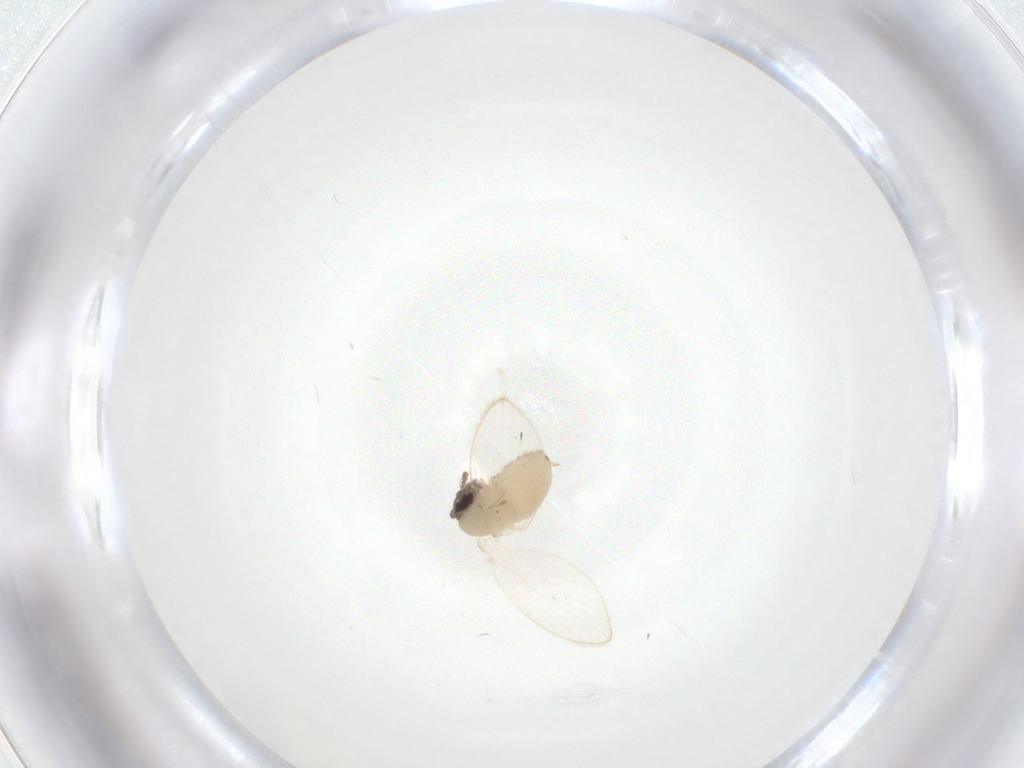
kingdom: Animalia
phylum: Arthropoda
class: Insecta
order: Diptera
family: Psychodidae
